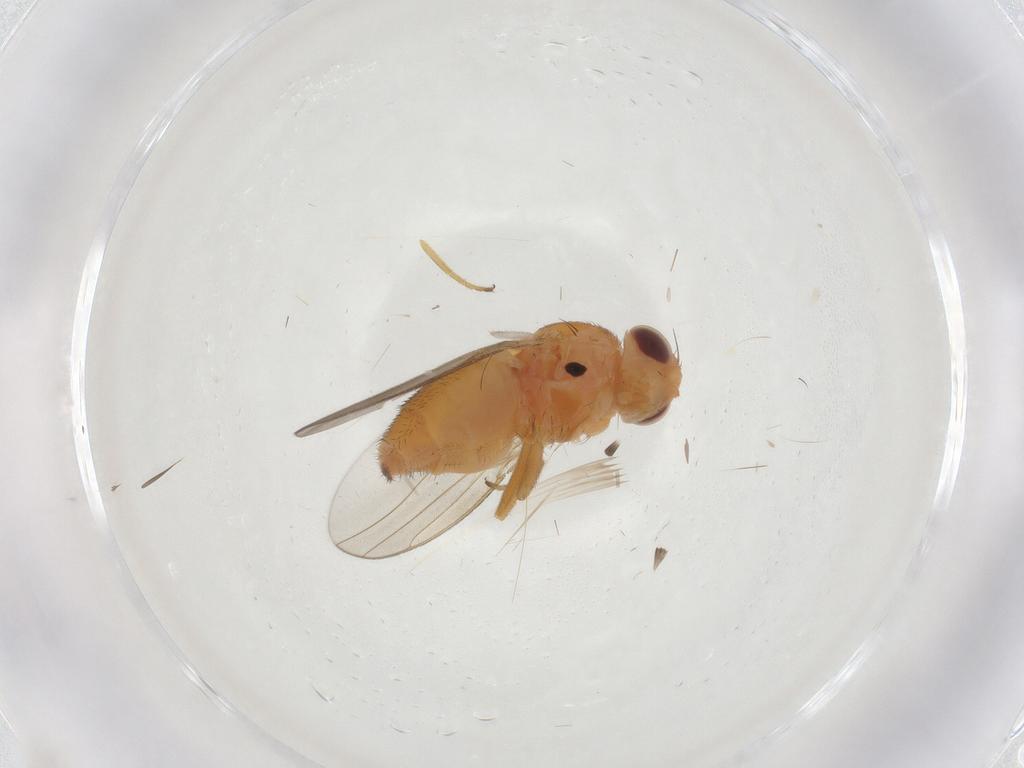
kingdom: Animalia
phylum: Arthropoda
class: Insecta
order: Diptera
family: Chloropidae
